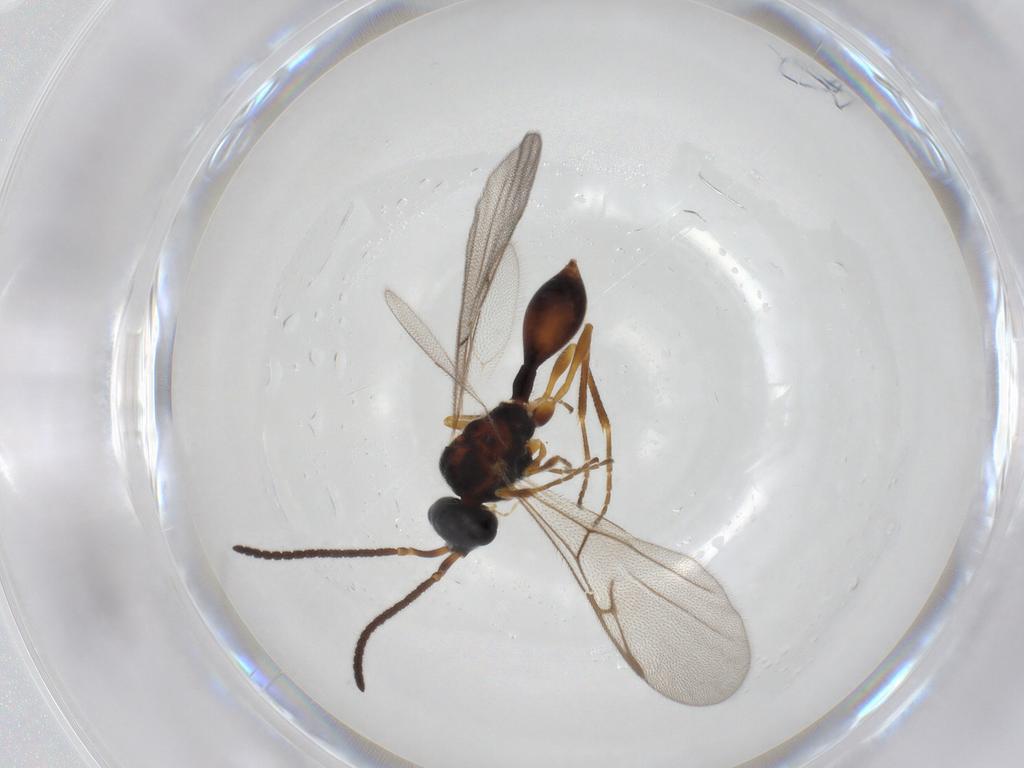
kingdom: Animalia
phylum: Arthropoda
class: Insecta
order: Hymenoptera
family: Diapriidae
